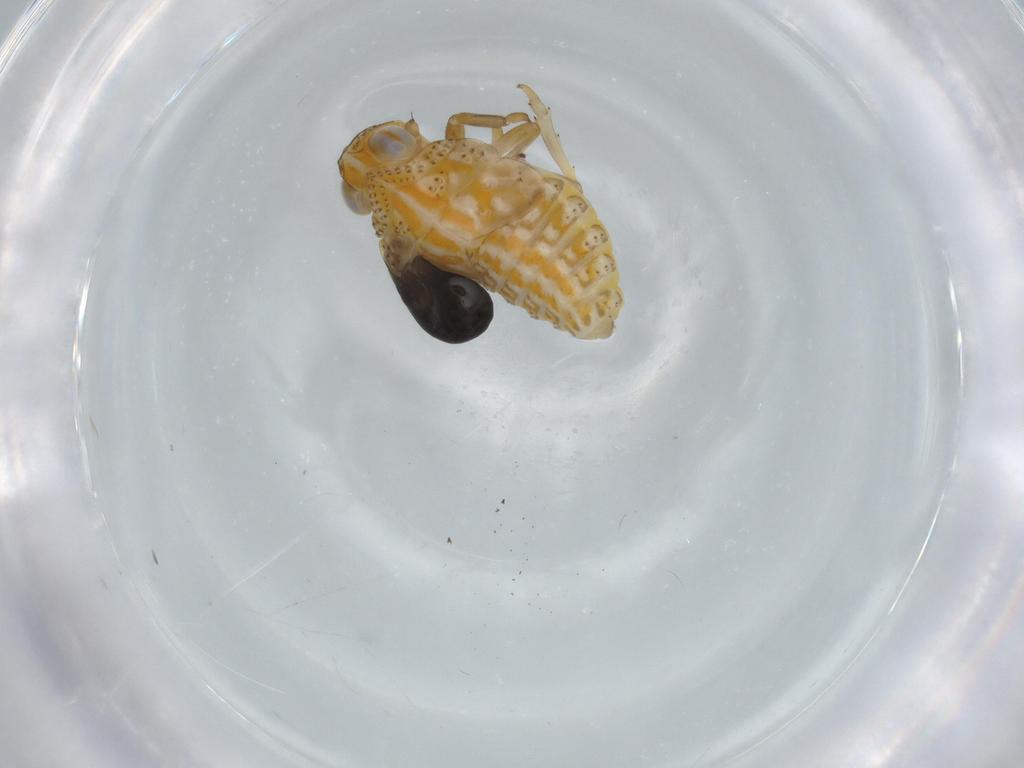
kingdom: Animalia
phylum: Arthropoda
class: Insecta
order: Hemiptera
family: Issidae
